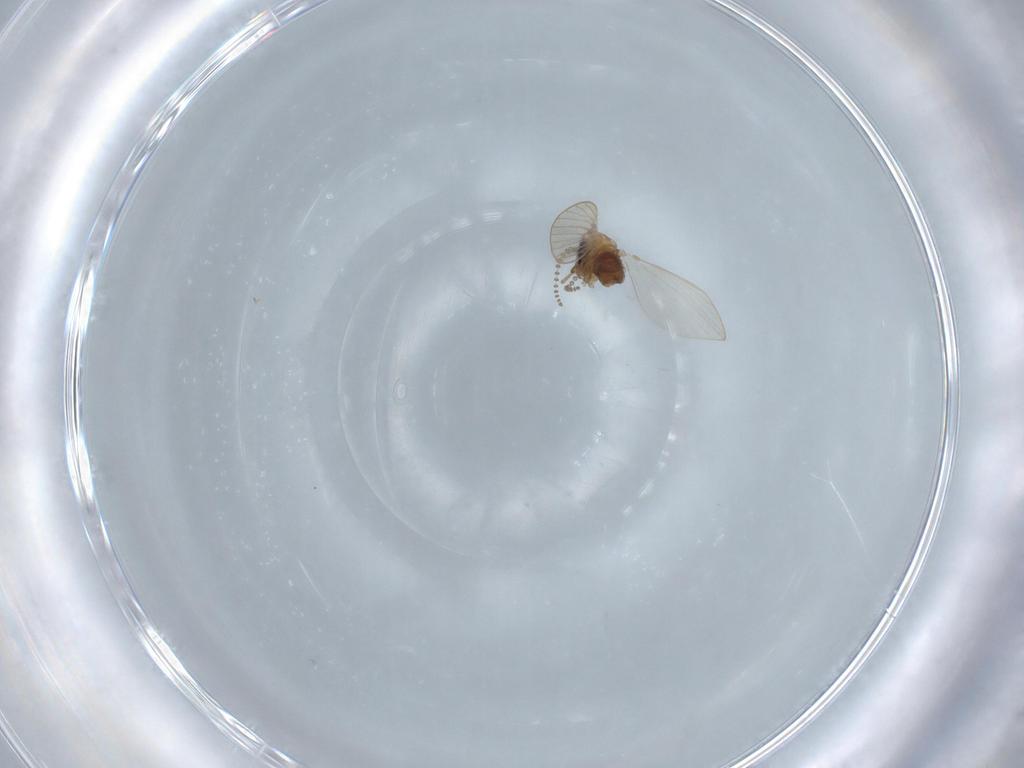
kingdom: Animalia
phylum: Arthropoda
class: Insecta
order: Diptera
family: Psychodidae
